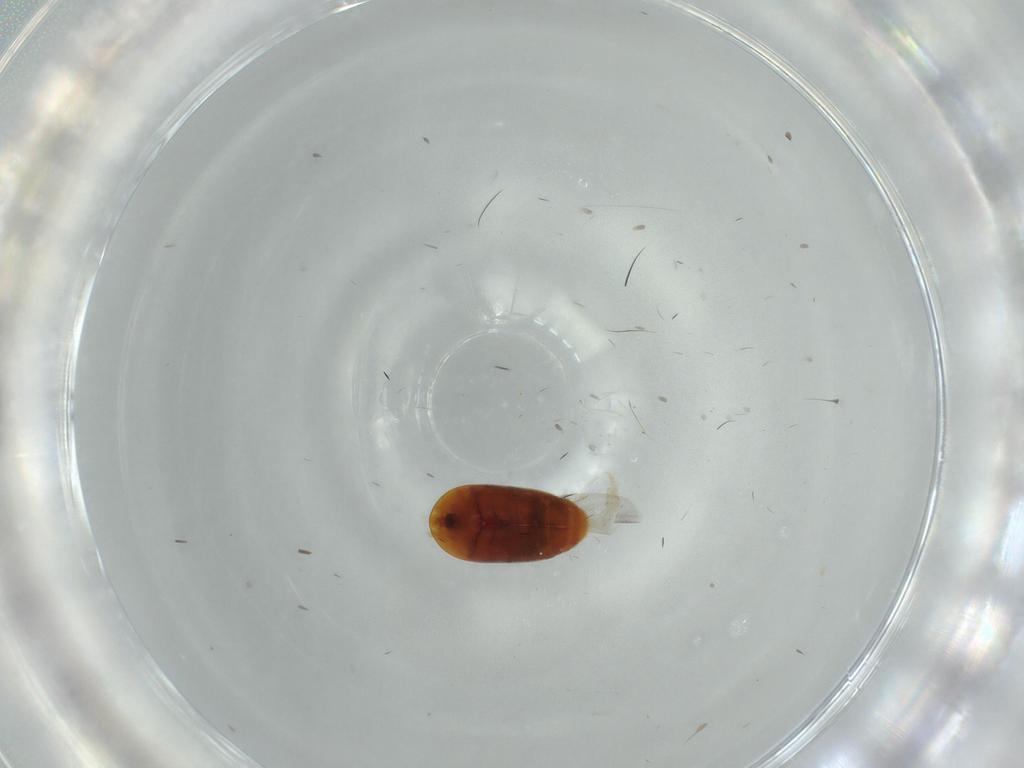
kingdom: Animalia
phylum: Arthropoda
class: Insecta
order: Coleoptera
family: Corylophidae
